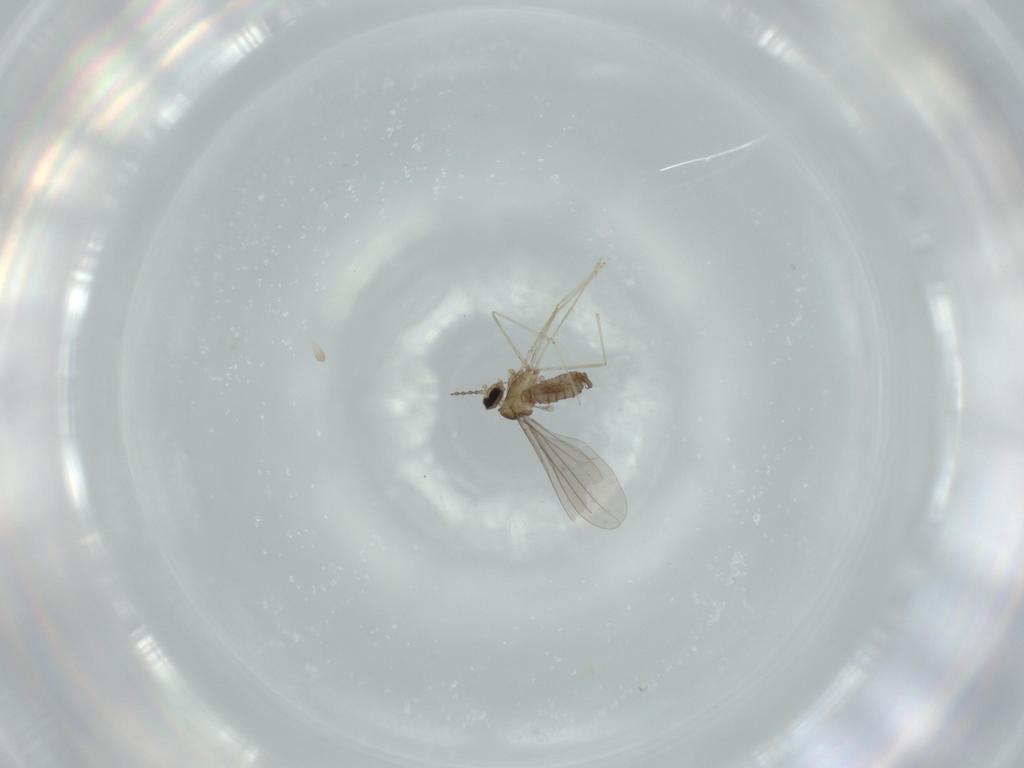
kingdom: Animalia
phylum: Arthropoda
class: Insecta
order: Diptera
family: Cecidomyiidae
